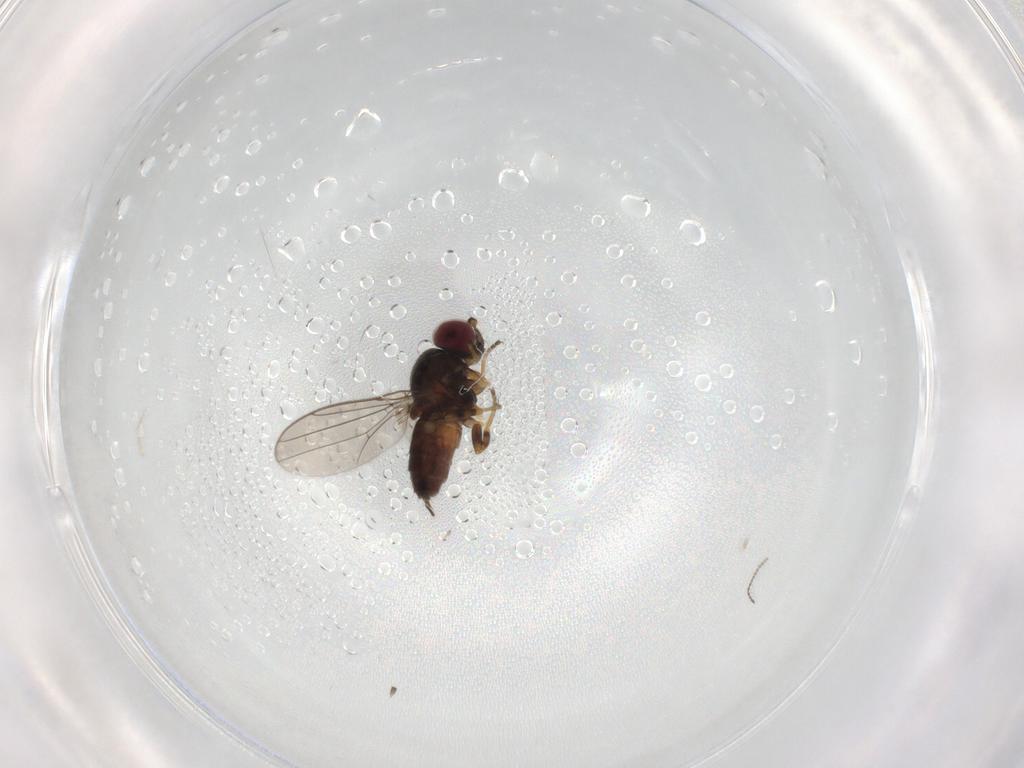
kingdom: Animalia
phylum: Arthropoda
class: Insecta
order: Diptera
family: Chloropidae
